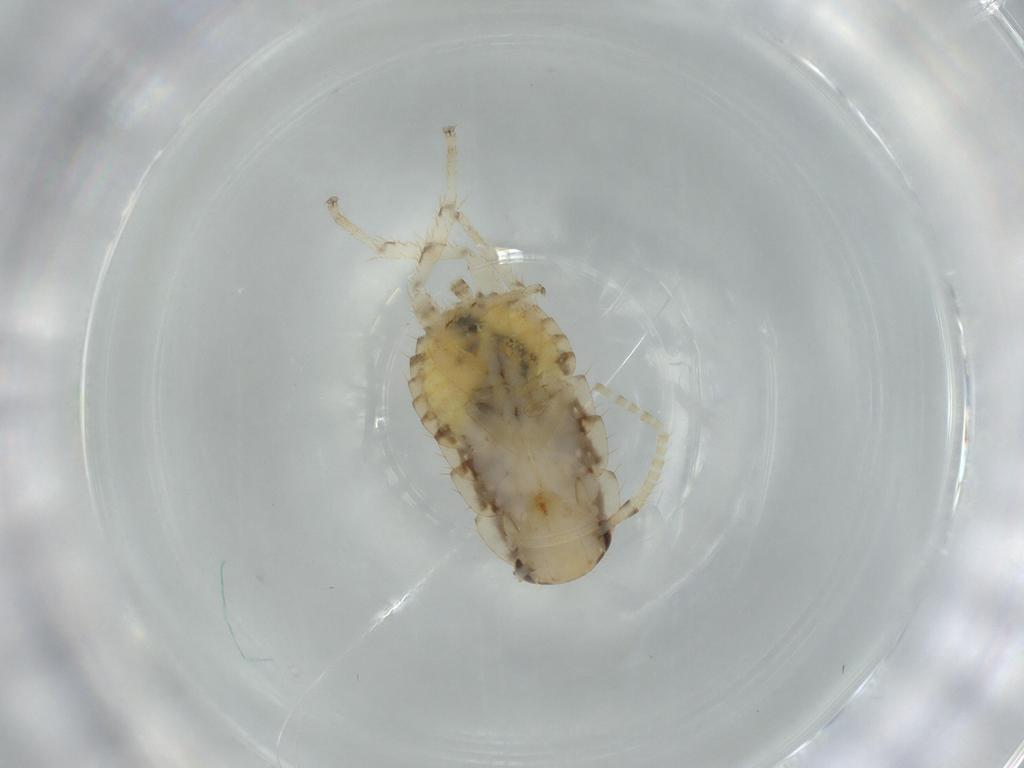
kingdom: Animalia
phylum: Arthropoda
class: Insecta
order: Blattodea
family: Ectobiidae
